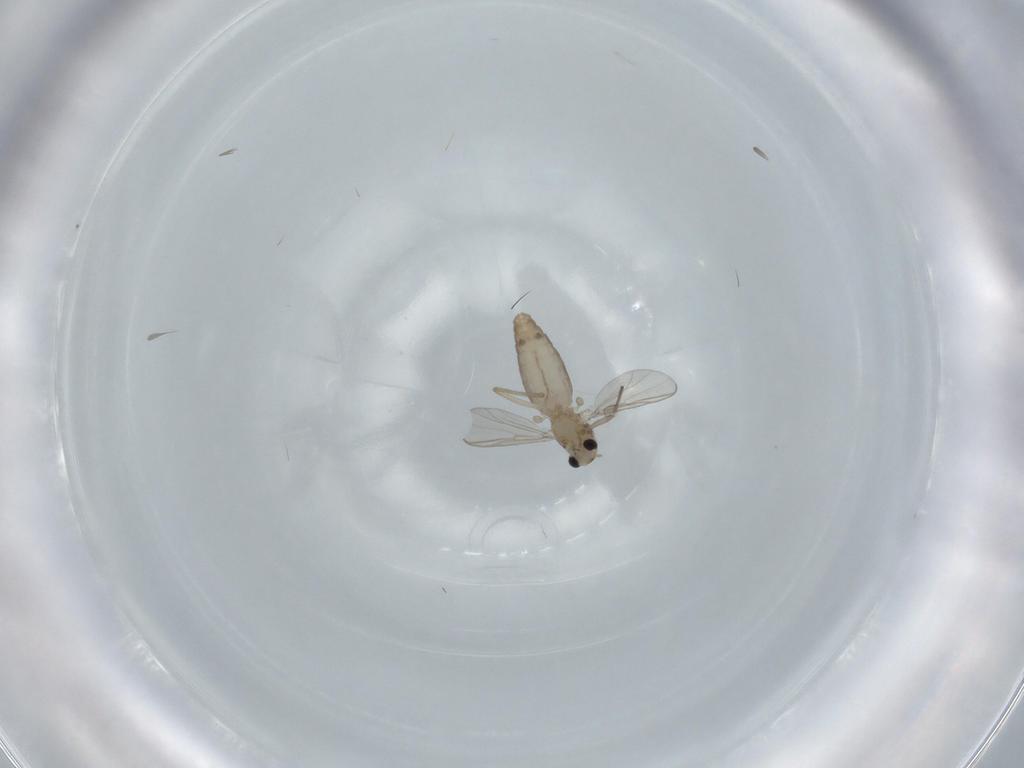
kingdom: Animalia
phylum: Arthropoda
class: Insecta
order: Diptera
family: Chironomidae
